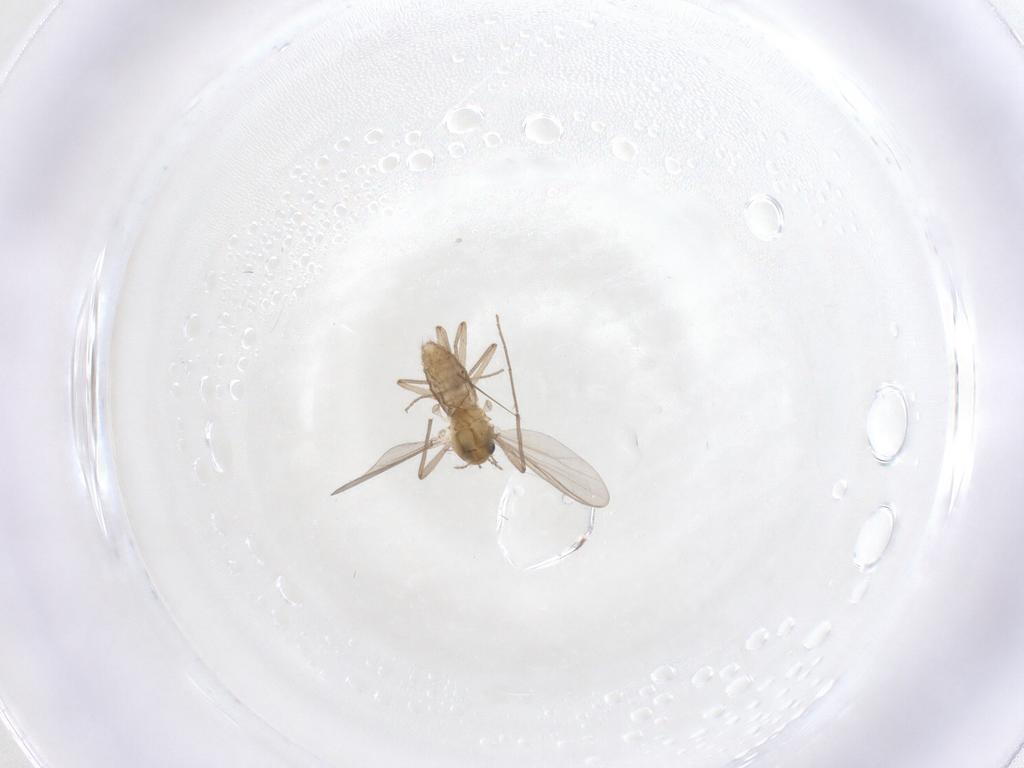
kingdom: Animalia
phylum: Arthropoda
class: Insecta
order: Diptera
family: Chironomidae
